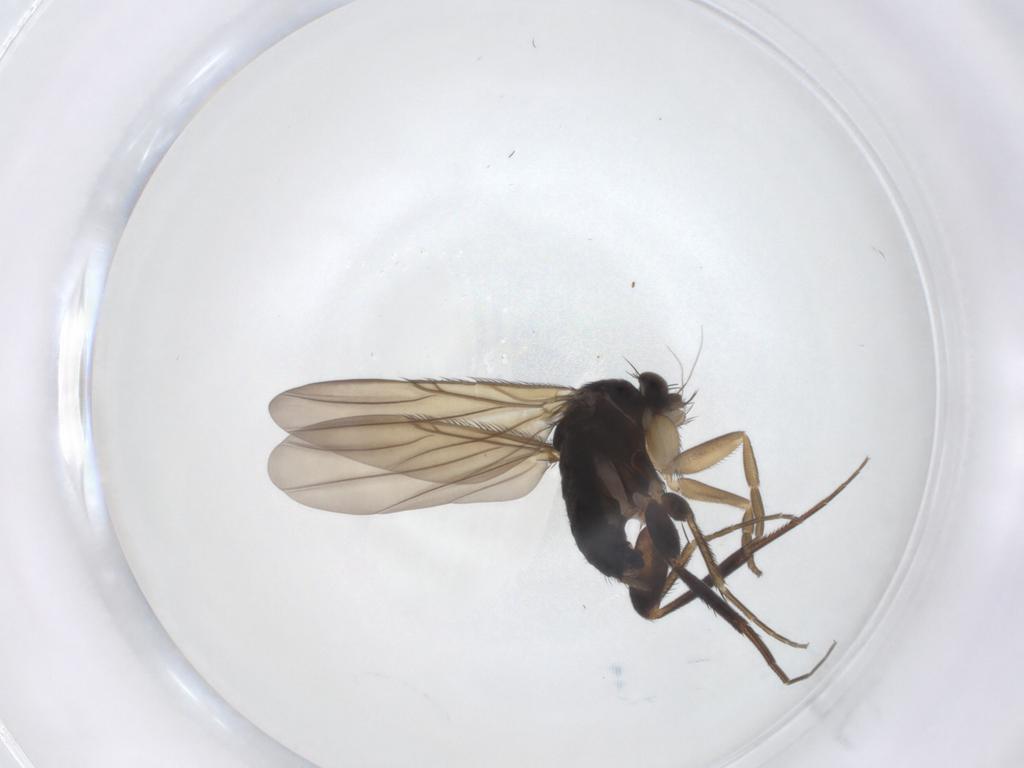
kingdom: Animalia
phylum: Arthropoda
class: Insecta
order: Diptera
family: Phoridae
